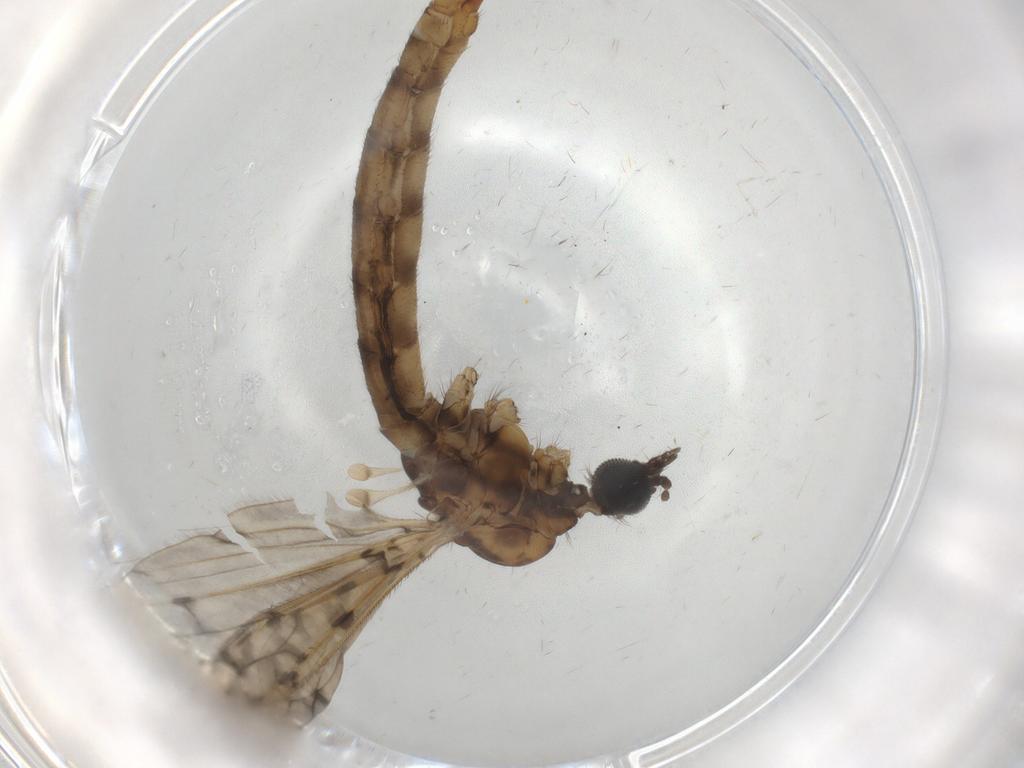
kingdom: Animalia
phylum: Arthropoda
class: Insecta
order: Diptera
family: Limoniidae
